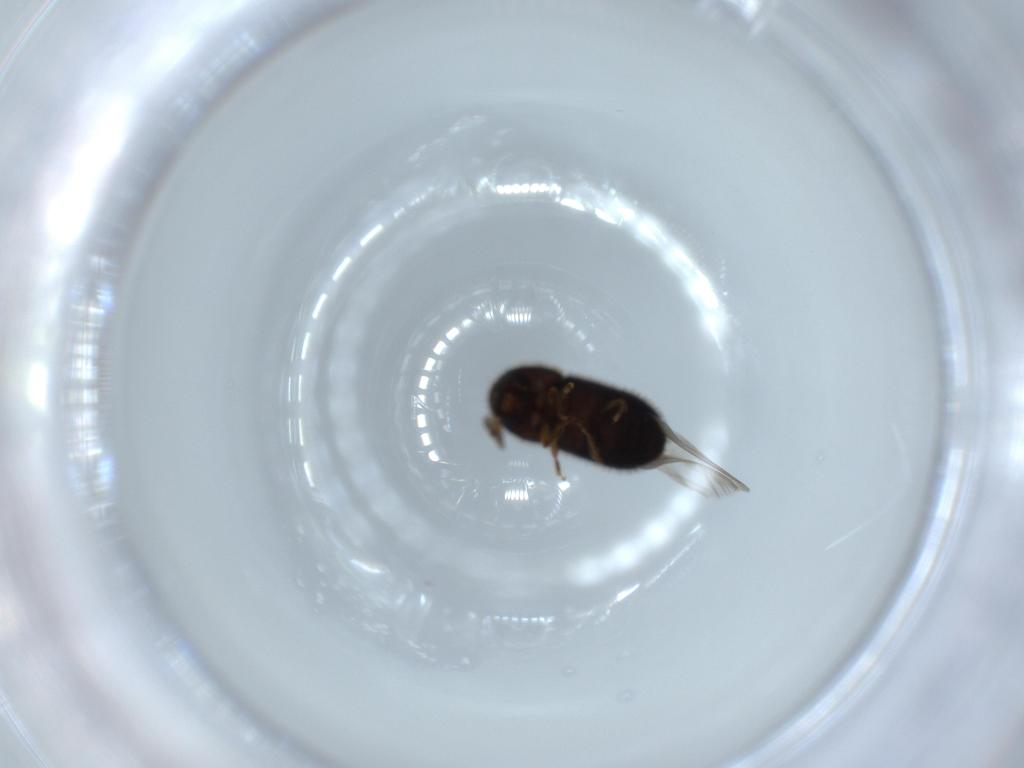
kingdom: Animalia
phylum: Arthropoda
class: Insecta
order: Coleoptera
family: Curculionidae
